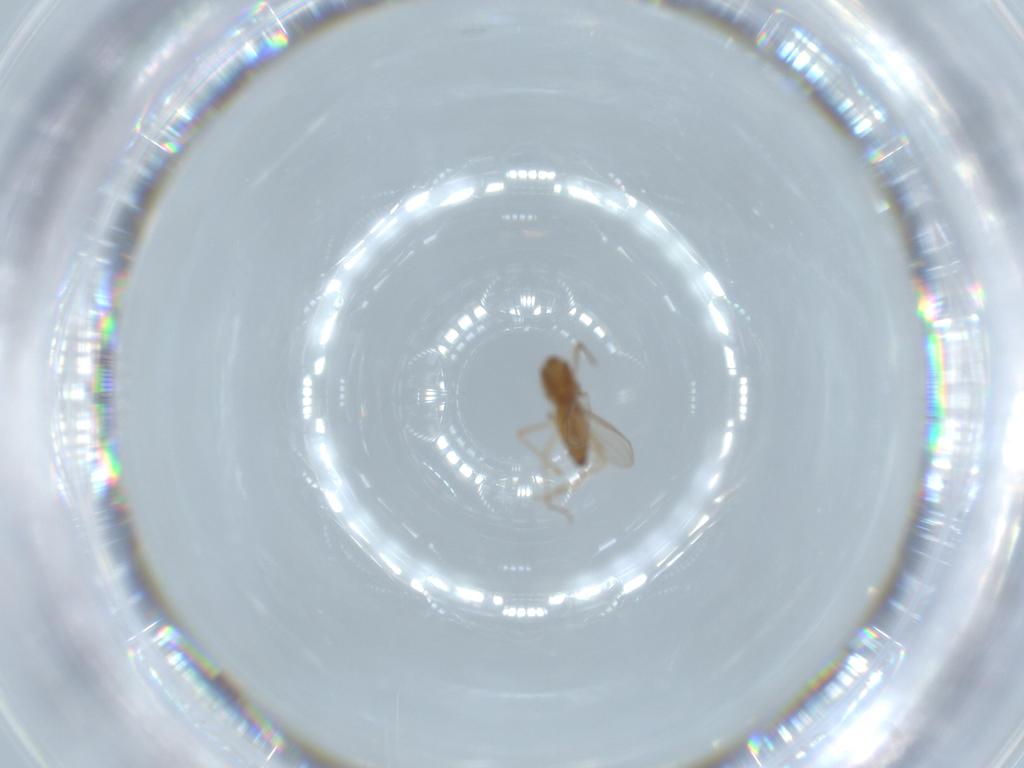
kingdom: Animalia
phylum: Arthropoda
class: Insecta
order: Diptera
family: Chironomidae
